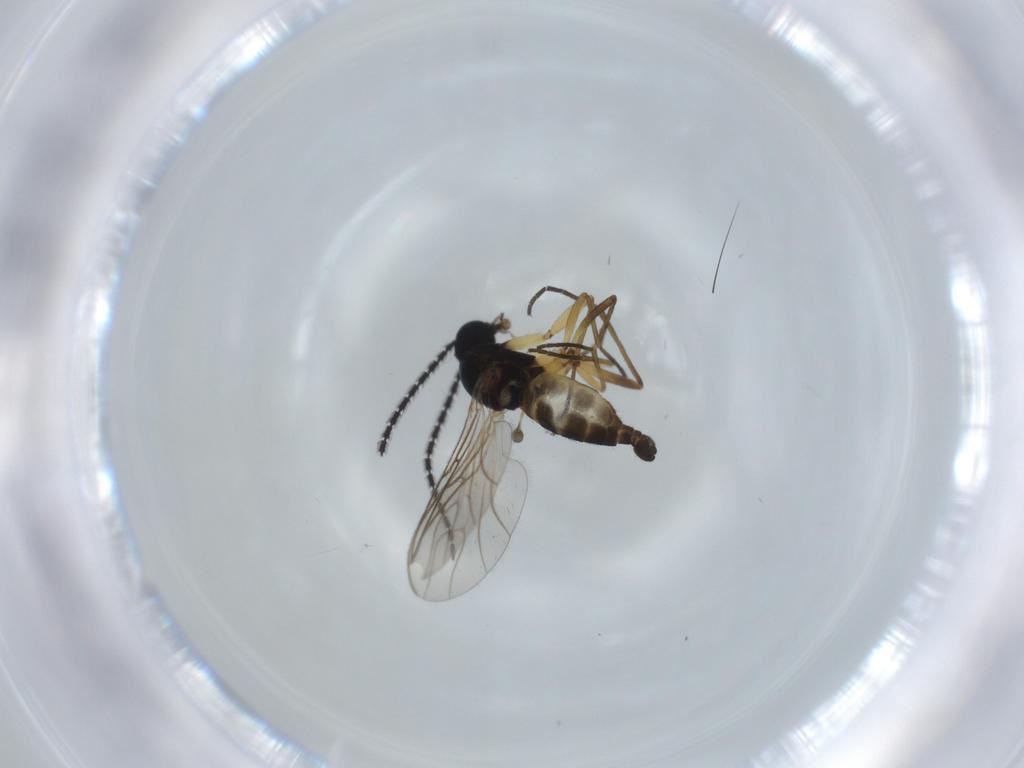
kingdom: Animalia
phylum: Arthropoda
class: Insecta
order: Diptera
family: Sciaridae
